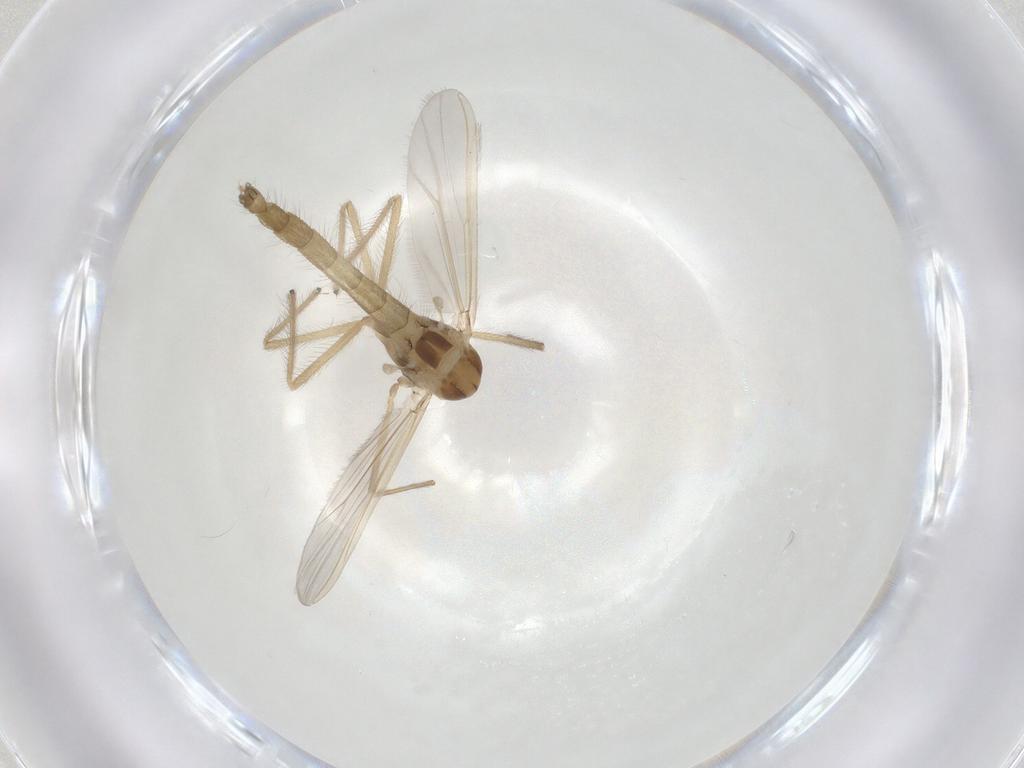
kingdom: Animalia
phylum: Arthropoda
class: Insecta
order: Diptera
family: Chironomidae
